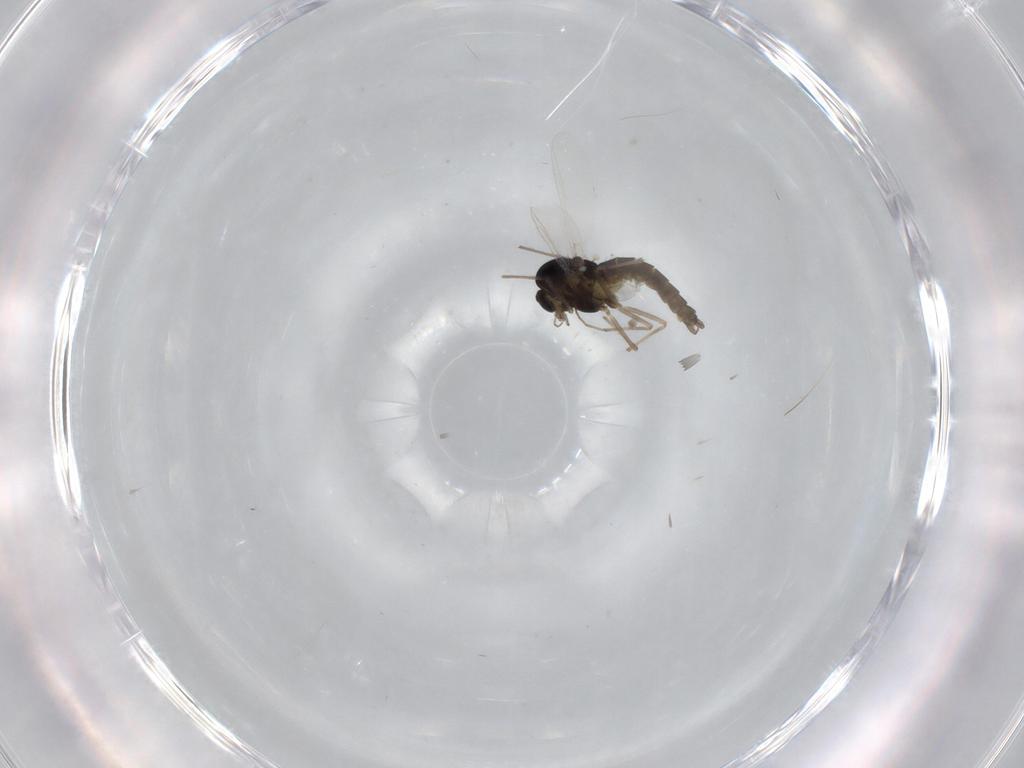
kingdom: Animalia
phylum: Arthropoda
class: Insecta
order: Diptera
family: Chironomidae
